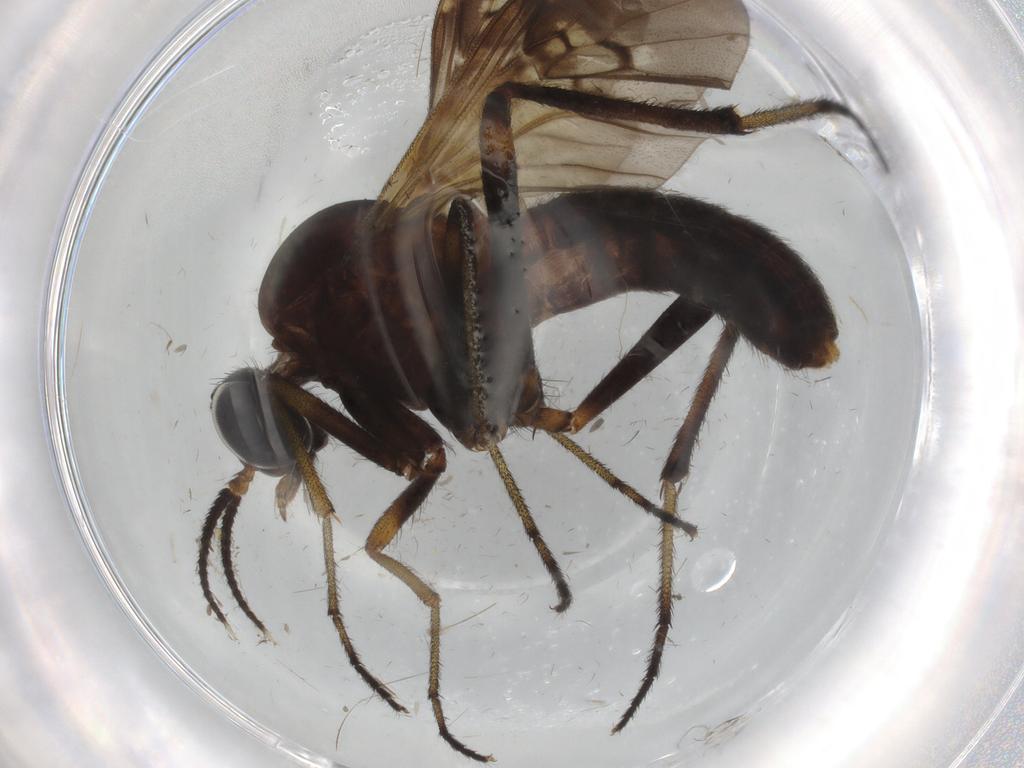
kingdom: Animalia
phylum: Arthropoda
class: Insecta
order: Diptera
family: Cecidomyiidae
